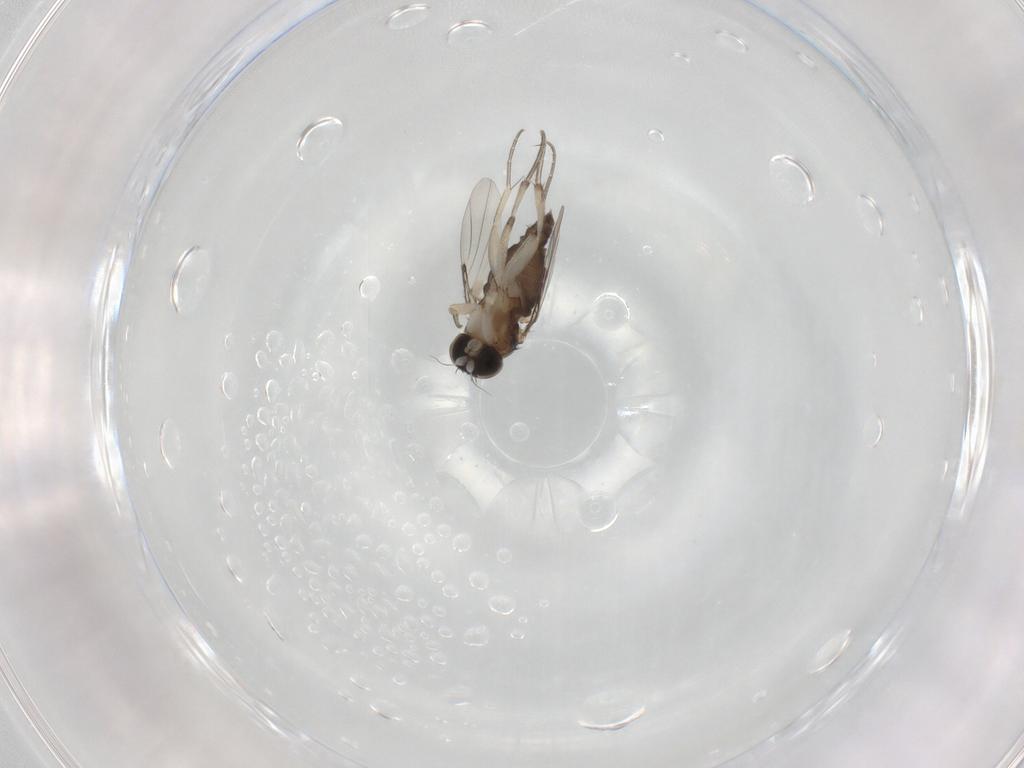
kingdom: Animalia
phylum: Arthropoda
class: Insecta
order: Diptera
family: Phoridae
